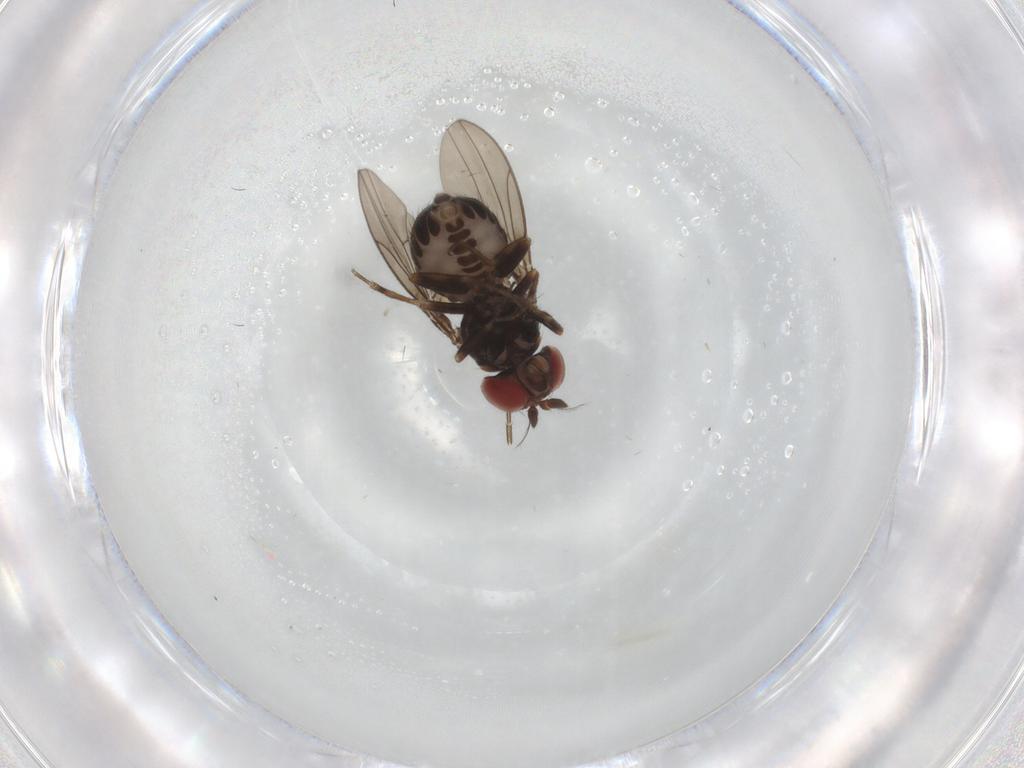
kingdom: Animalia
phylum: Arthropoda
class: Insecta
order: Diptera
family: Ephydridae
